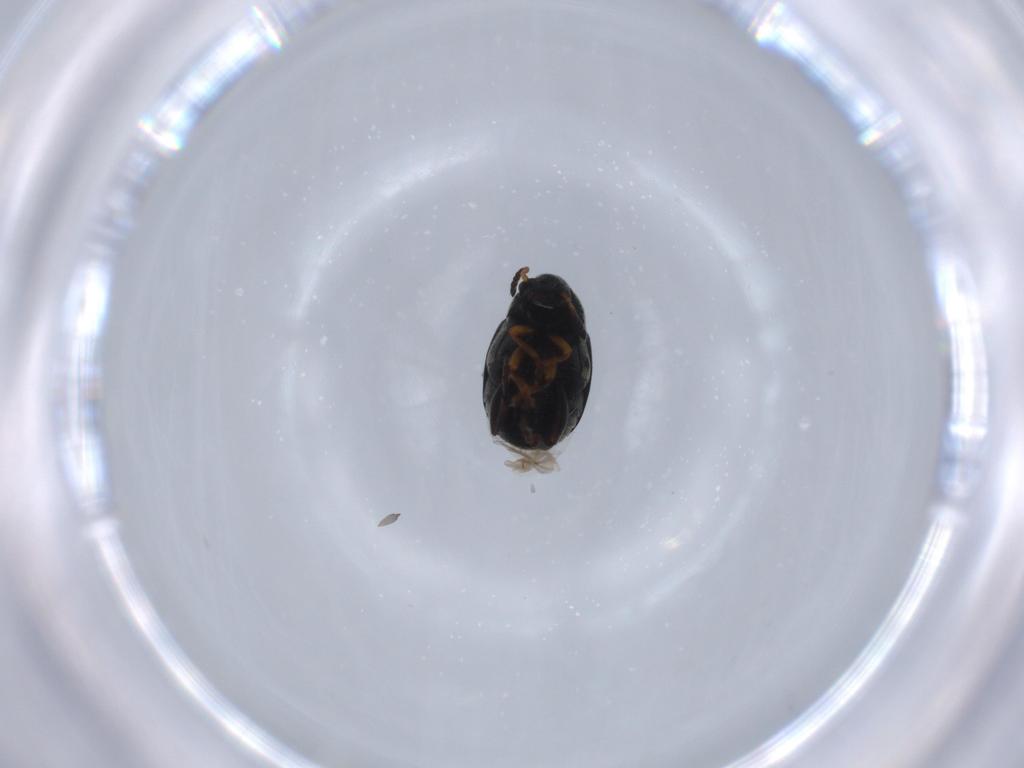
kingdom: Animalia
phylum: Arthropoda
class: Insecta
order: Coleoptera
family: Chrysomelidae
